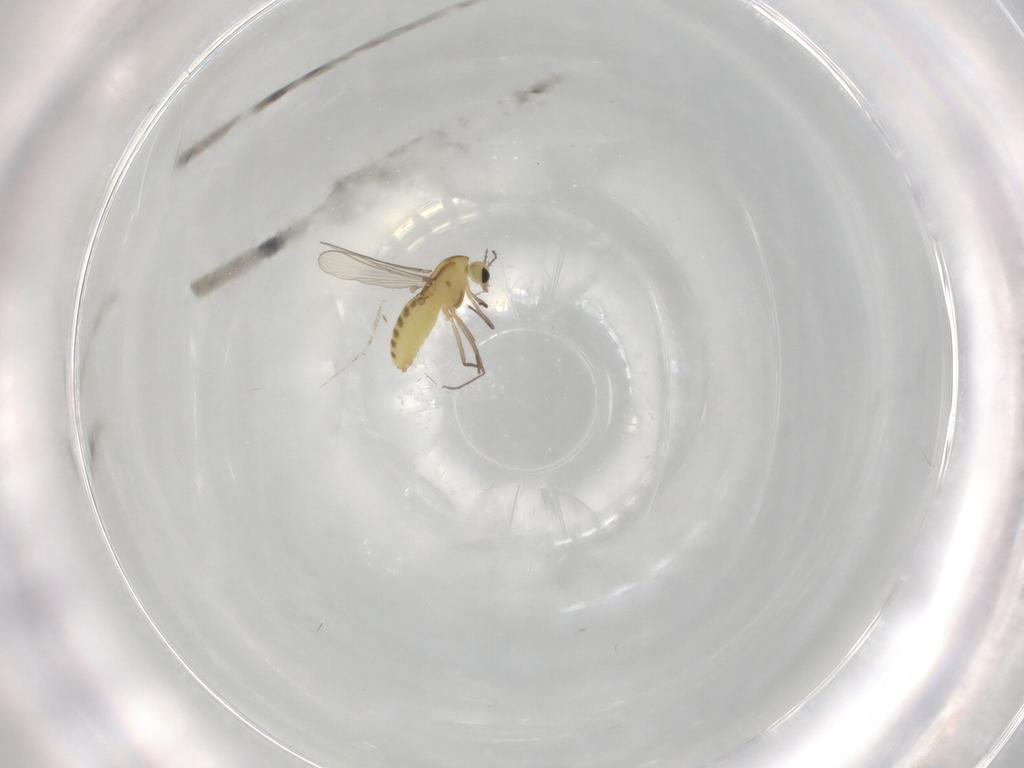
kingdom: Animalia
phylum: Arthropoda
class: Insecta
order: Diptera
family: Chironomidae
